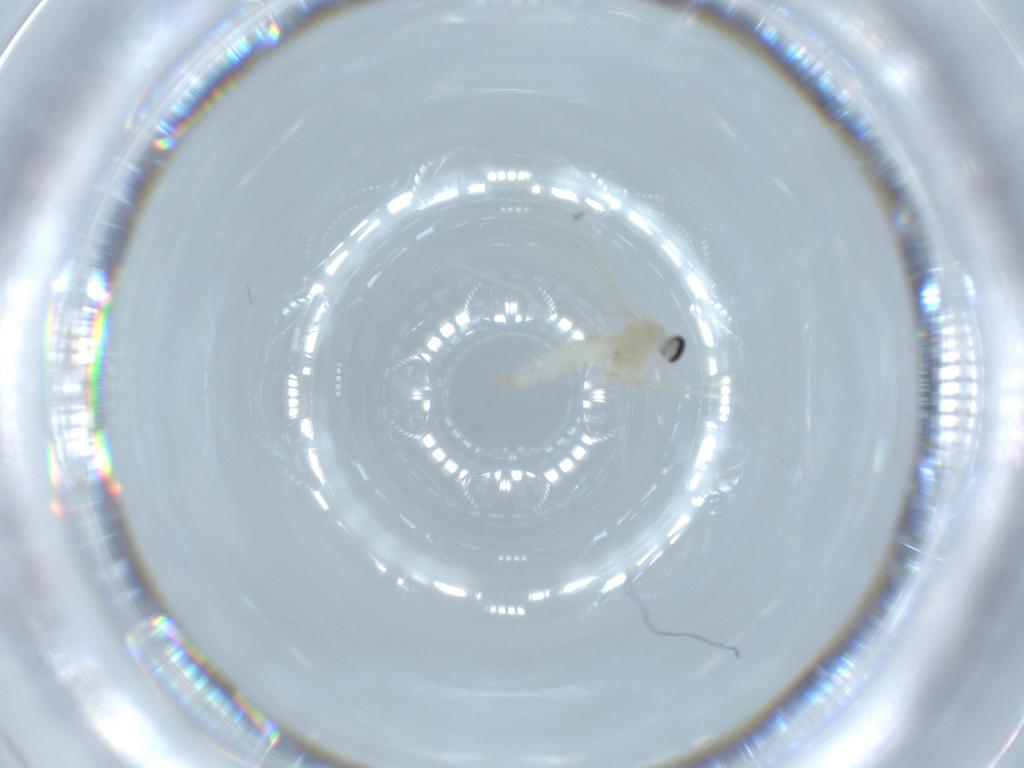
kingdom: Animalia
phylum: Arthropoda
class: Insecta
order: Diptera
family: Cecidomyiidae
